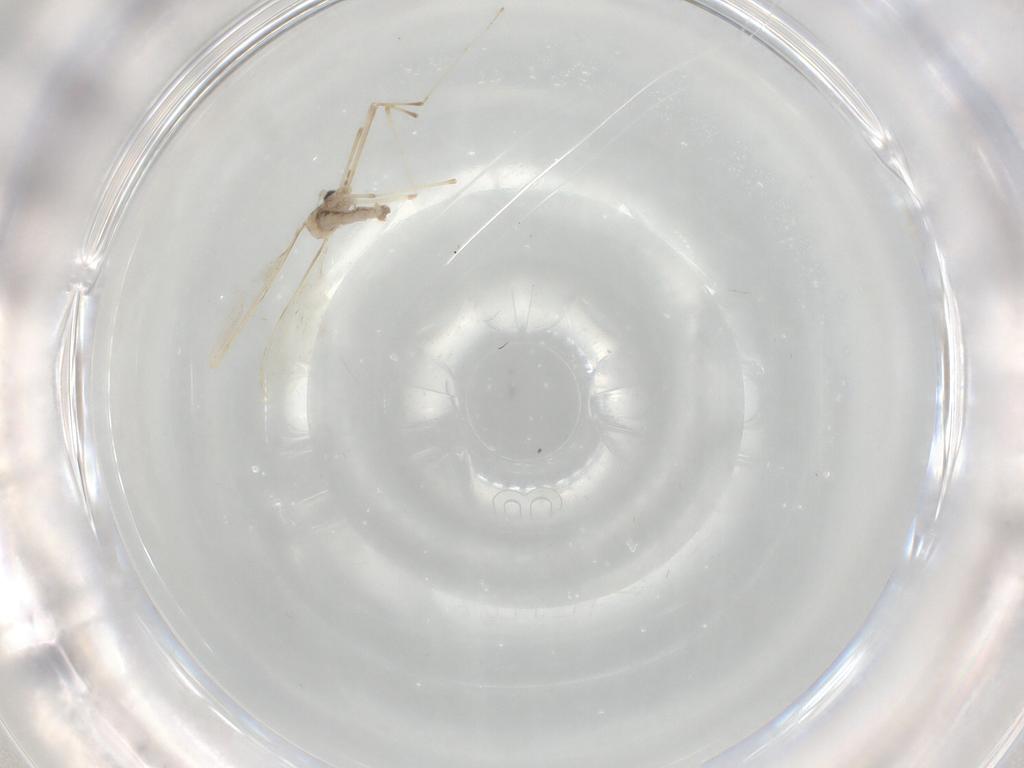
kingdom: Animalia
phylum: Arthropoda
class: Insecta
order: Diptera
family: Cecidomyiidae
